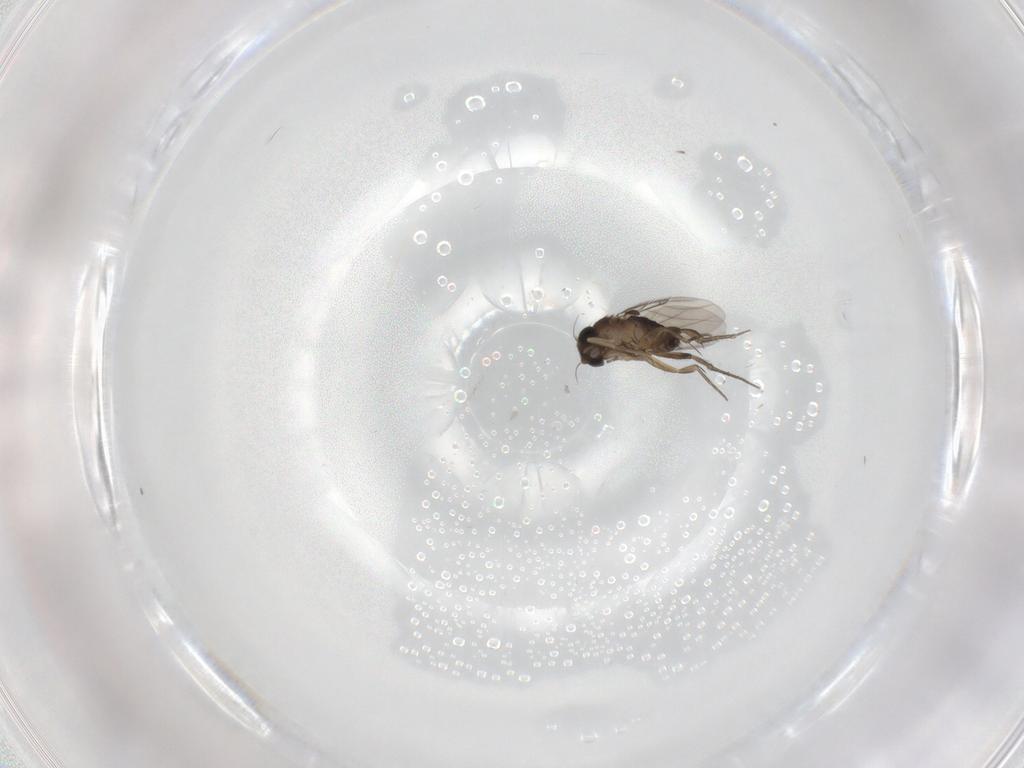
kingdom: Animalia
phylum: Arthropoda
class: Insecta
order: Diptera
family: Phoridae
